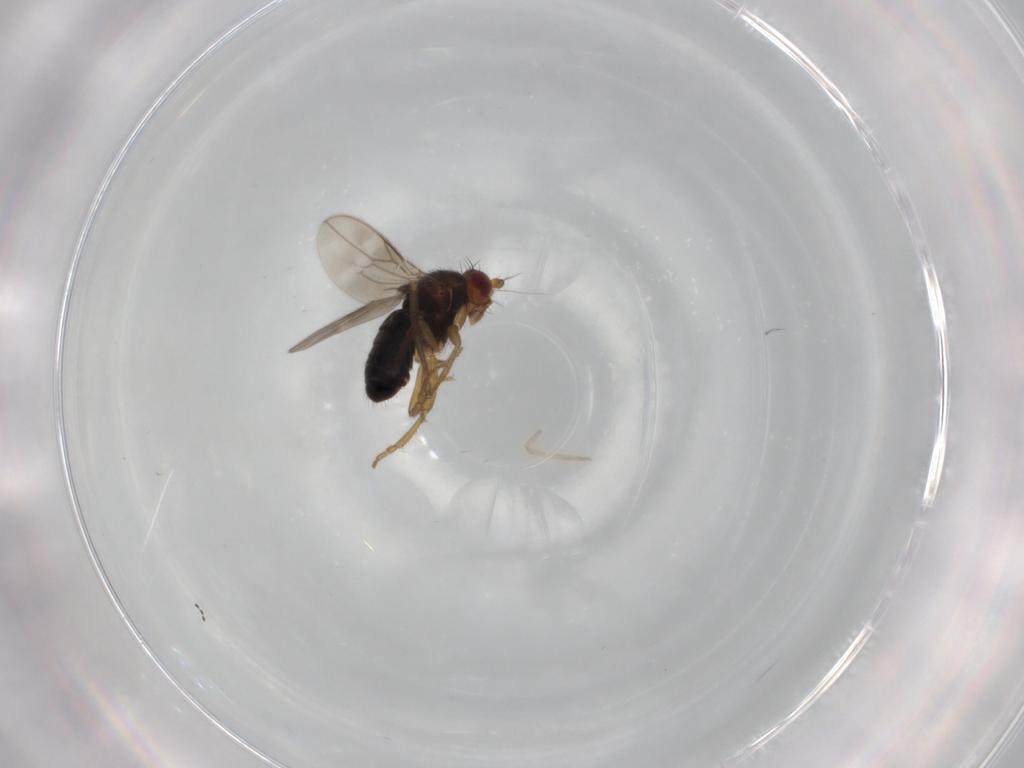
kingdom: Animalia
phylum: Arthropoda
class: Insecta
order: Diptera
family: Sphaeroceridae
